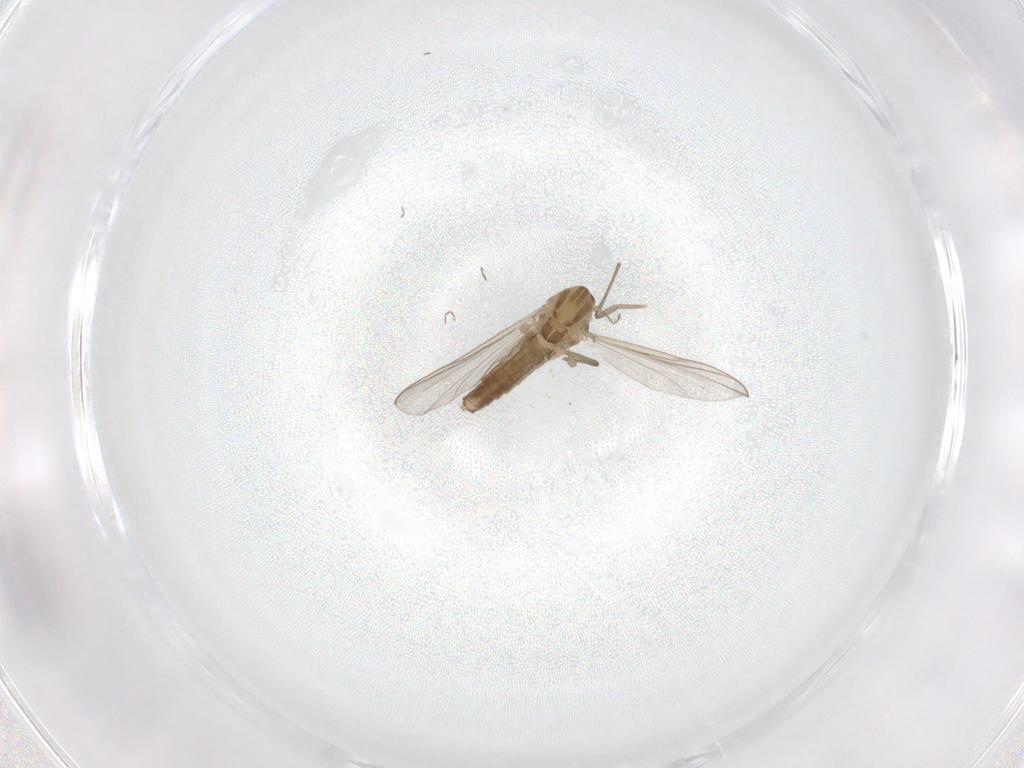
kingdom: Animalia
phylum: Arthropoda
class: Insecta
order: Diptera
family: Chironomidae
